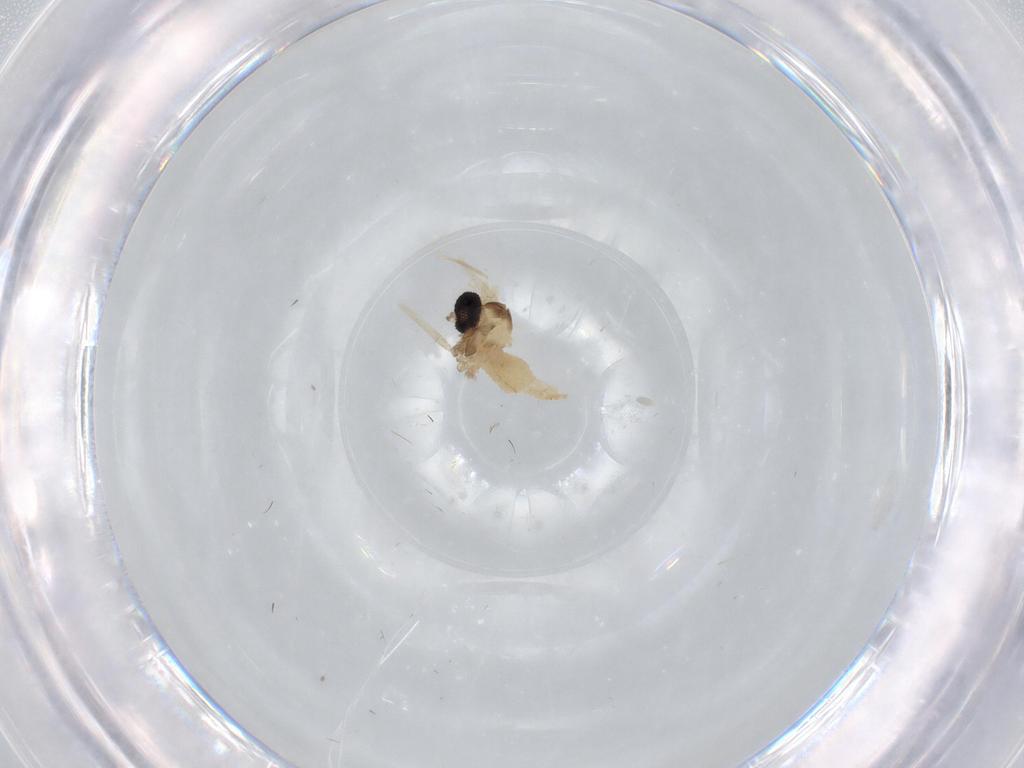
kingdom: Animalia
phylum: Arthropoda
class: Insecta
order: Diptera
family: Cecidomyiidae
